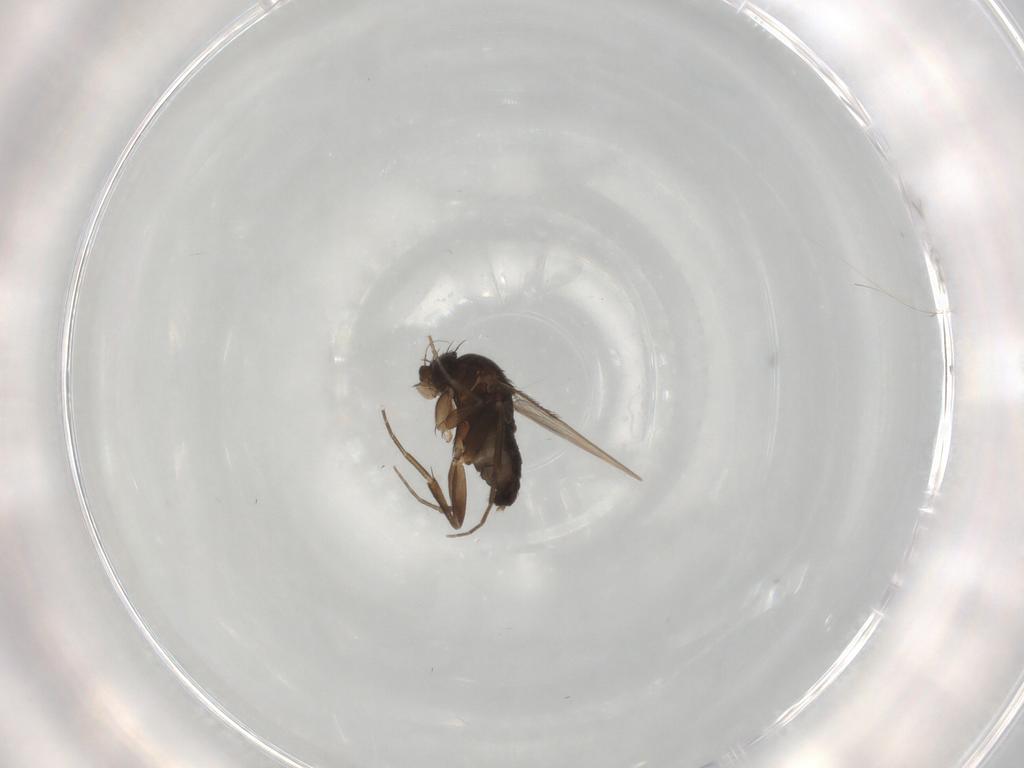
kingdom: Animalia
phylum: Arthropoda
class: Insecta
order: Diptera
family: Phoridae
